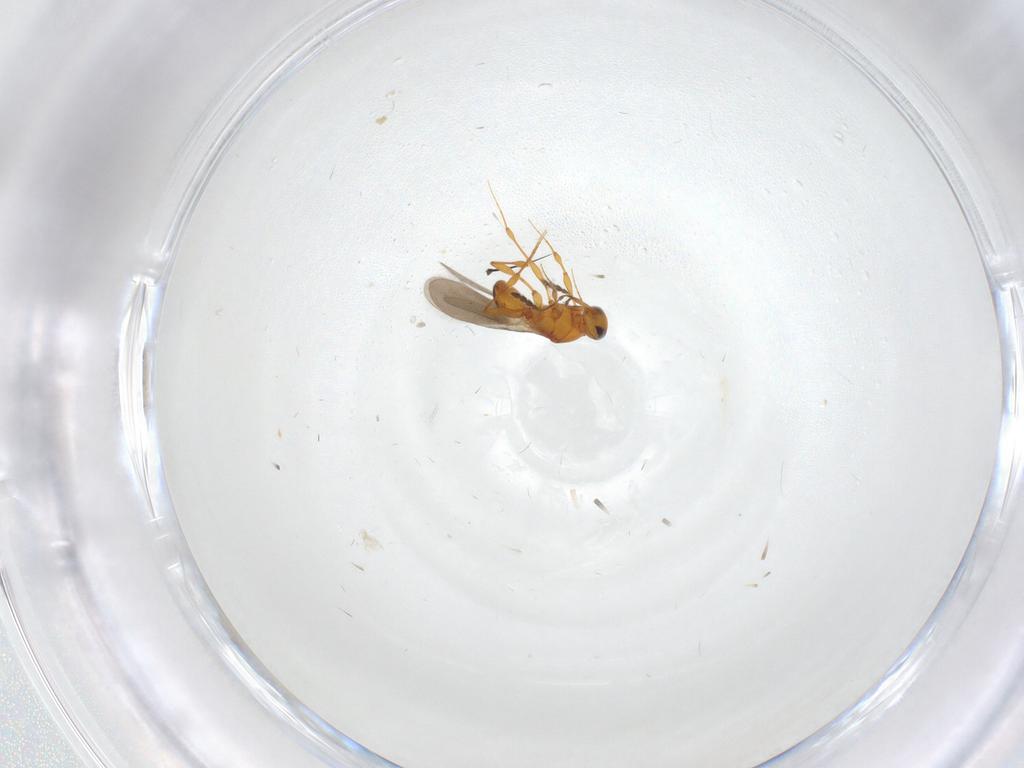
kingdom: Animalia
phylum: Arthropoda
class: Insecta
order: Hymenoptera
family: Platygastridae
